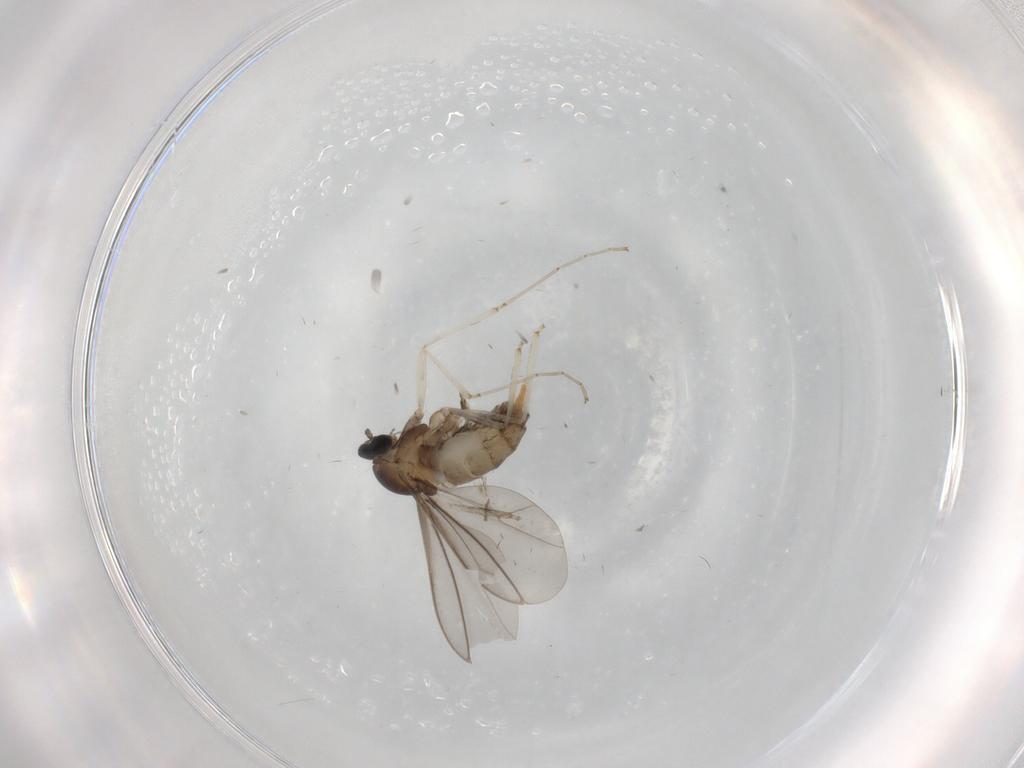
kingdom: Animalia
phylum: Arthropoda
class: Insecta
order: Diptera
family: Cecidomyiidae
